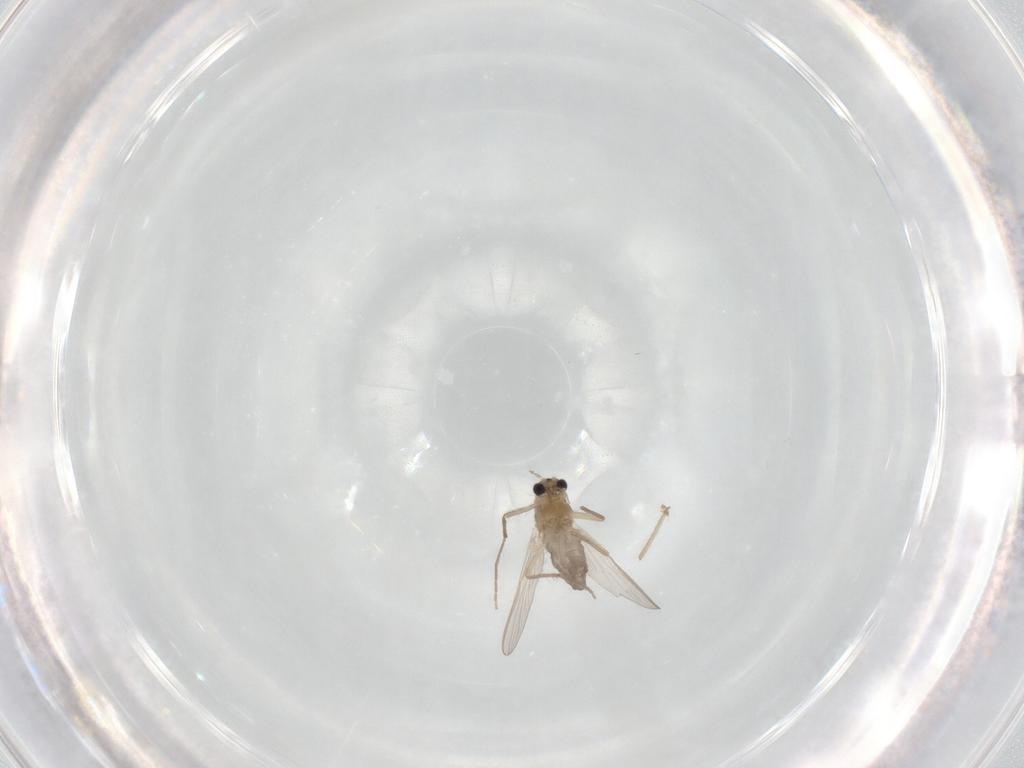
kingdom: Animalia
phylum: Arthropoda
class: Insecta
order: Diptera
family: Chironomidae
